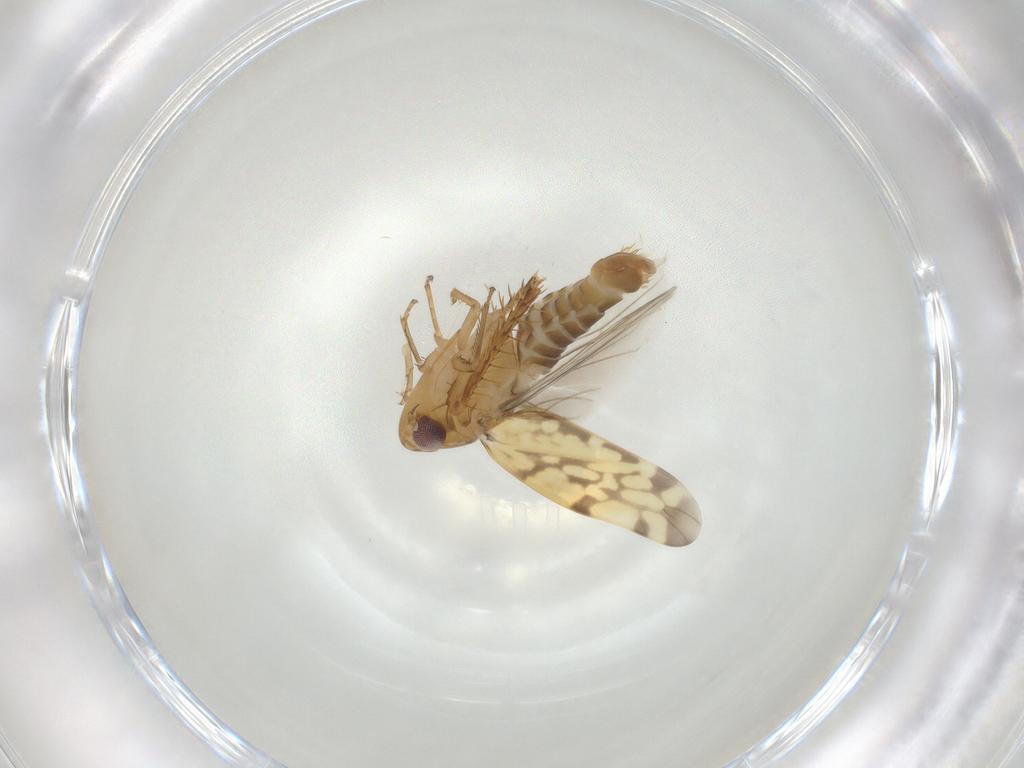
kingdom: Animalia
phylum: Arthropoda
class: Insecta
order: Hemiptera
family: Cicadellidae
